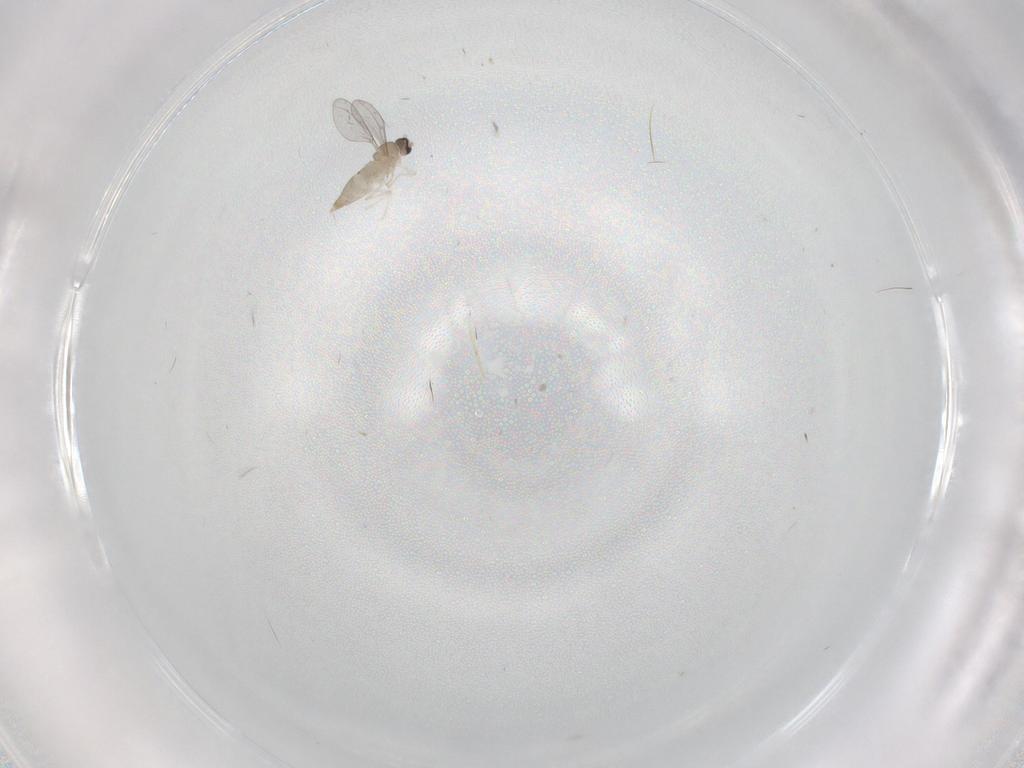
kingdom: Animalia
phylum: Arthropoda
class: Insecta
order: Diptera
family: Cecidomyiidae
